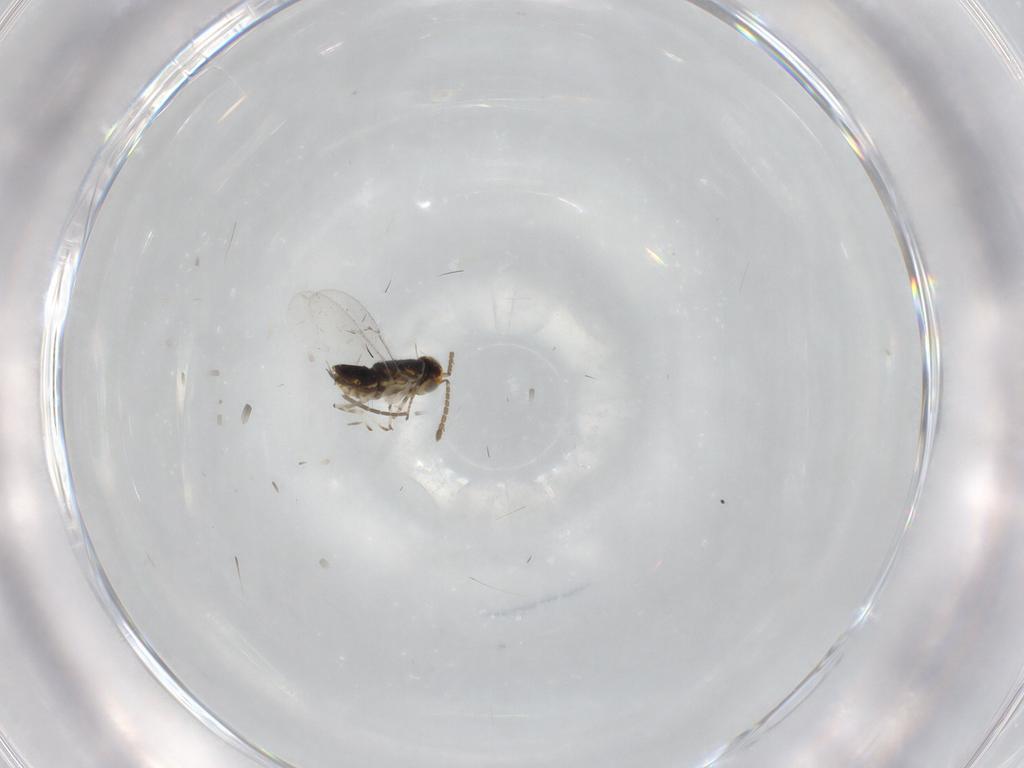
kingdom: Animalia
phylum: Arthropoda
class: Insecta
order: Hymenoptera
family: Encyrtidae
